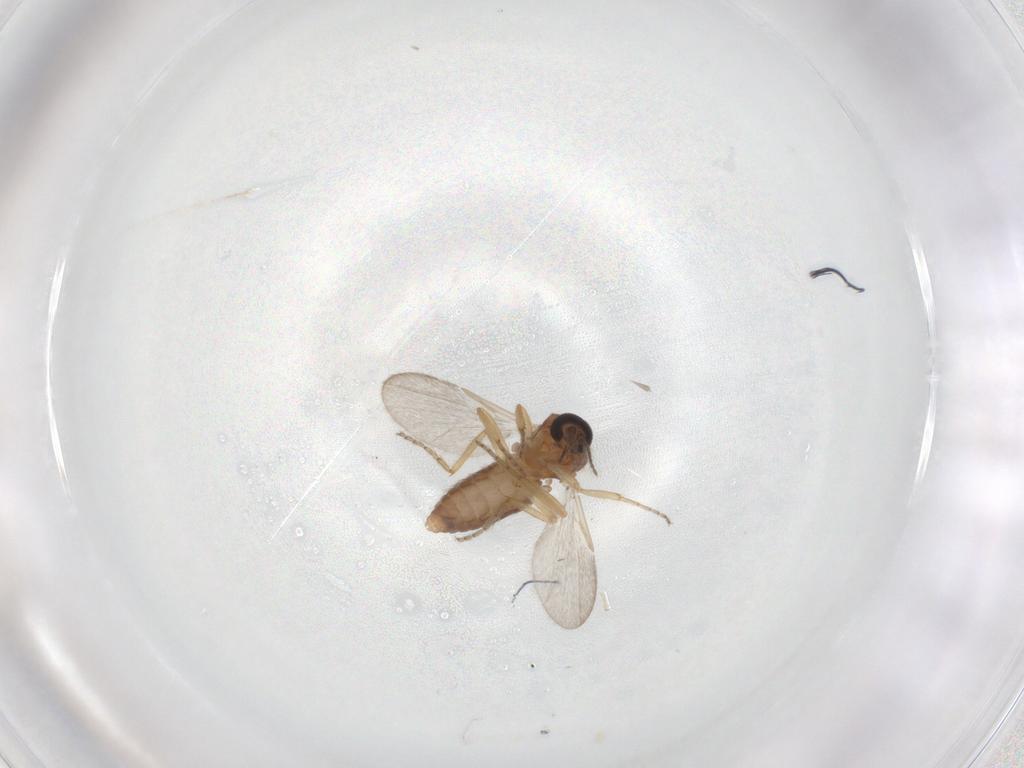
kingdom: Animalia
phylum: Arthropoda
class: Insecta
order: Diptera
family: Ceratopogonidae
